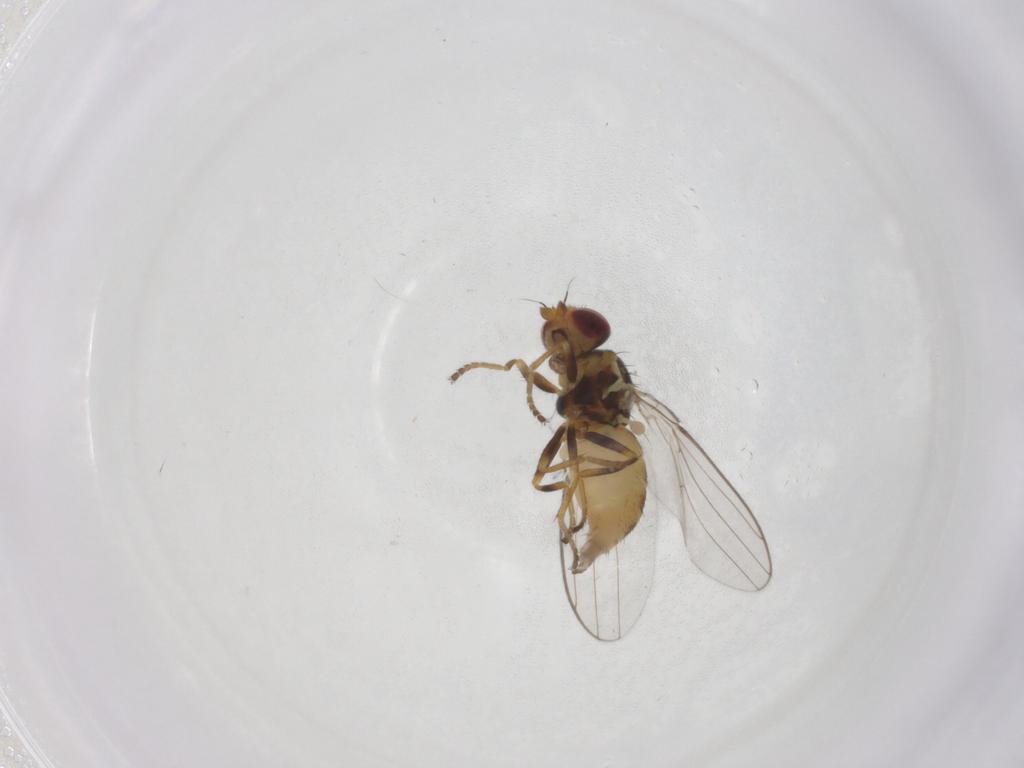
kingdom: Animalia
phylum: Arthropoda
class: Insecta
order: Diptera
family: Chloropidae
